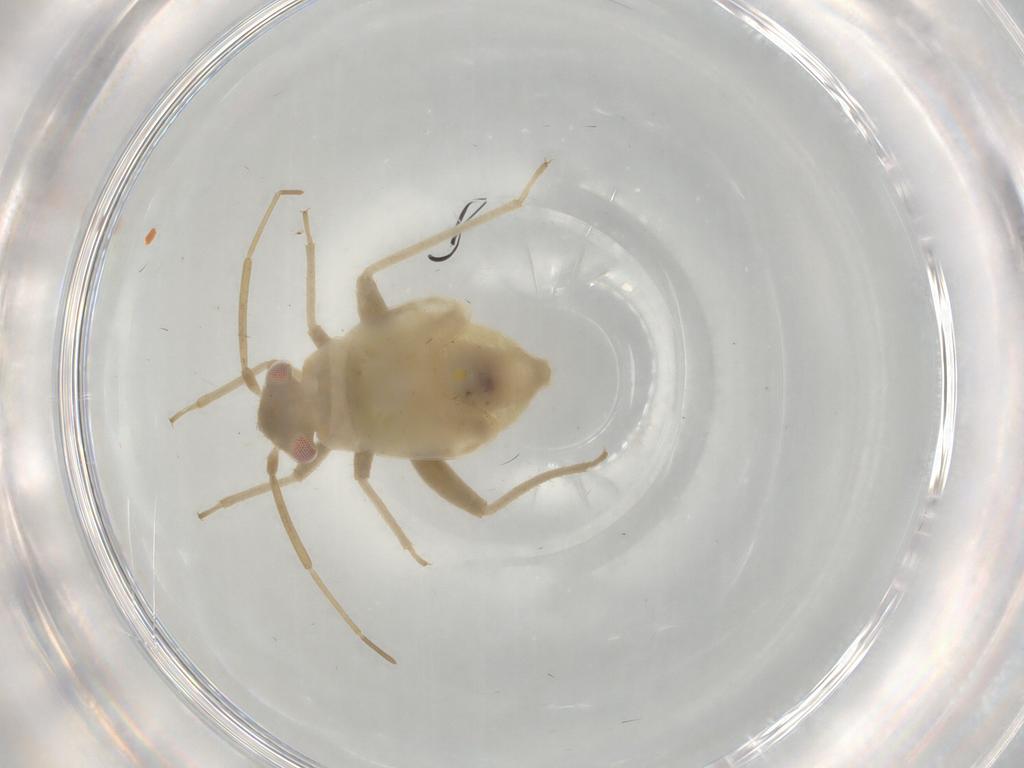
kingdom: Animalia
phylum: Arthropoda
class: Insecta
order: Hemiptera
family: Miridae
